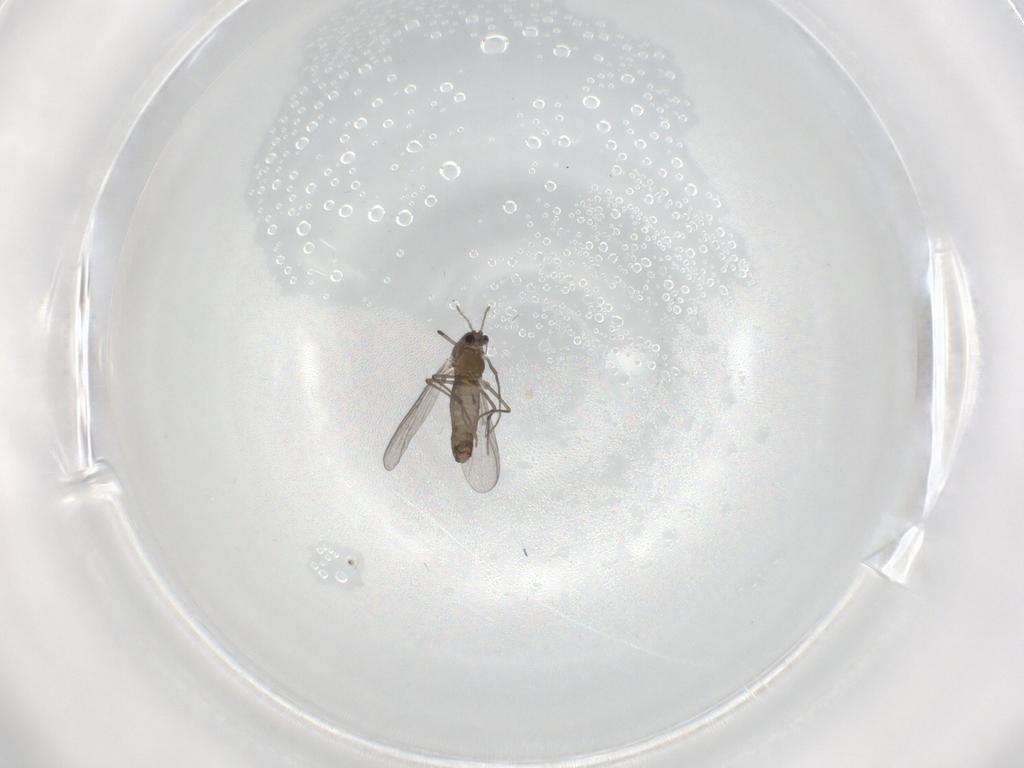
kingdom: Animalia
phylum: Arthropoda
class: Insecta
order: Diptera
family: Chironomidae
